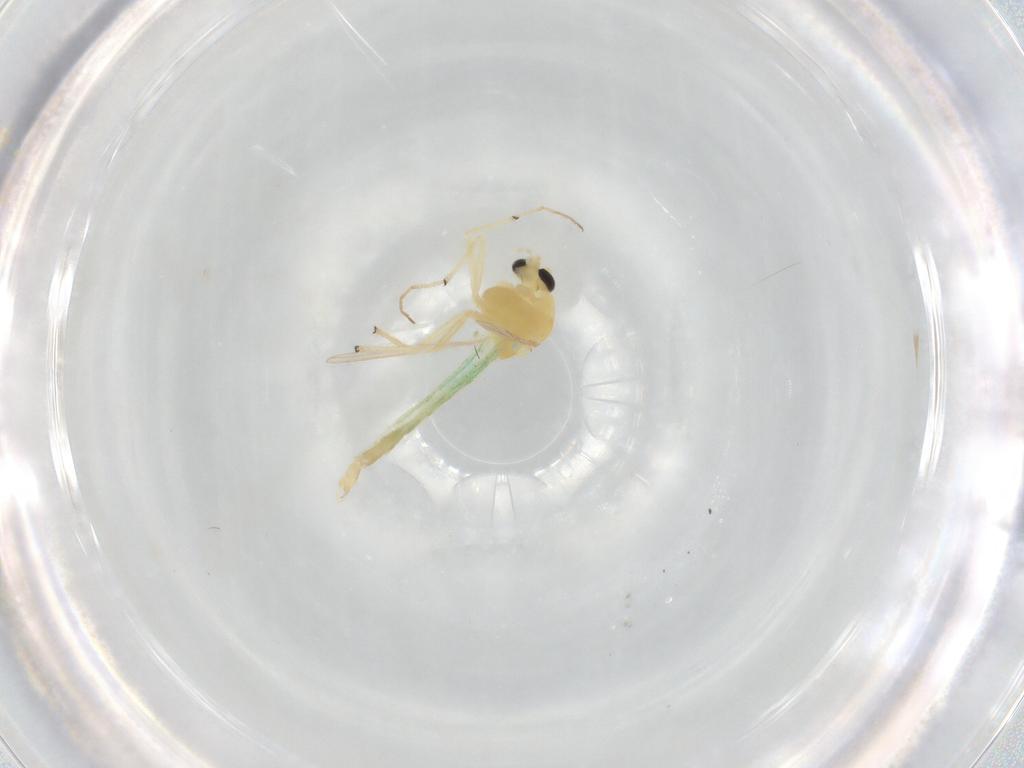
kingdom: Animalia
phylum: Arthropoda
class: Insecta
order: Diptera
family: Chironomidae
